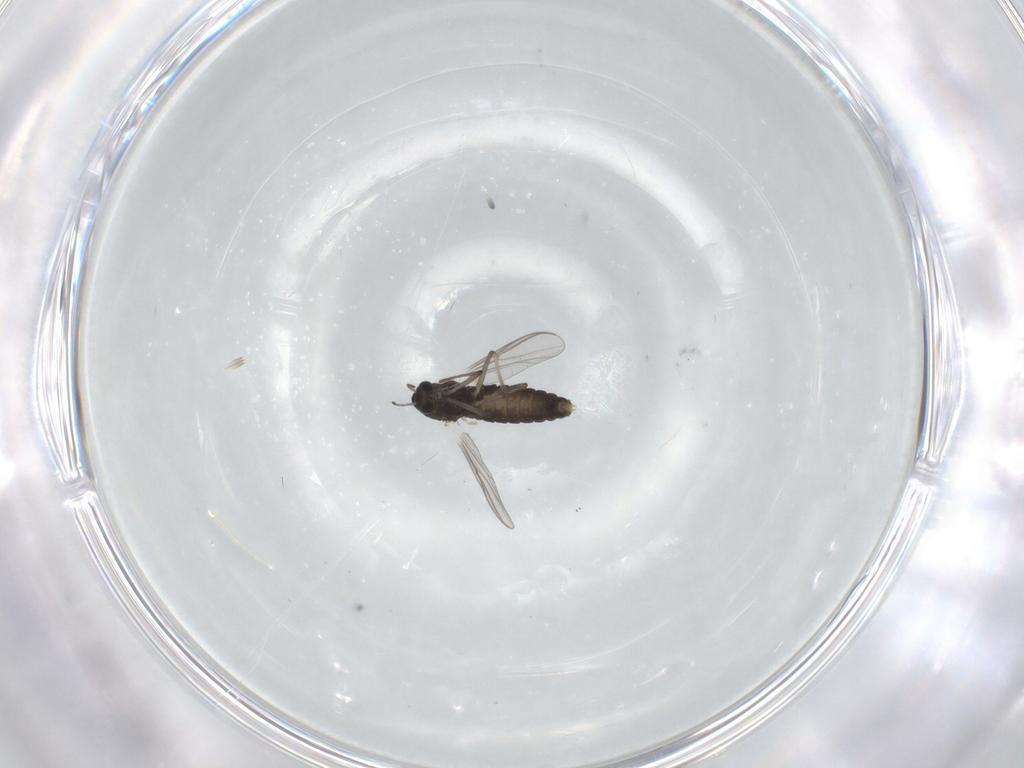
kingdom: Animalia
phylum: Arthropoda
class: Insecta
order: Diptera
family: Chironomidae
